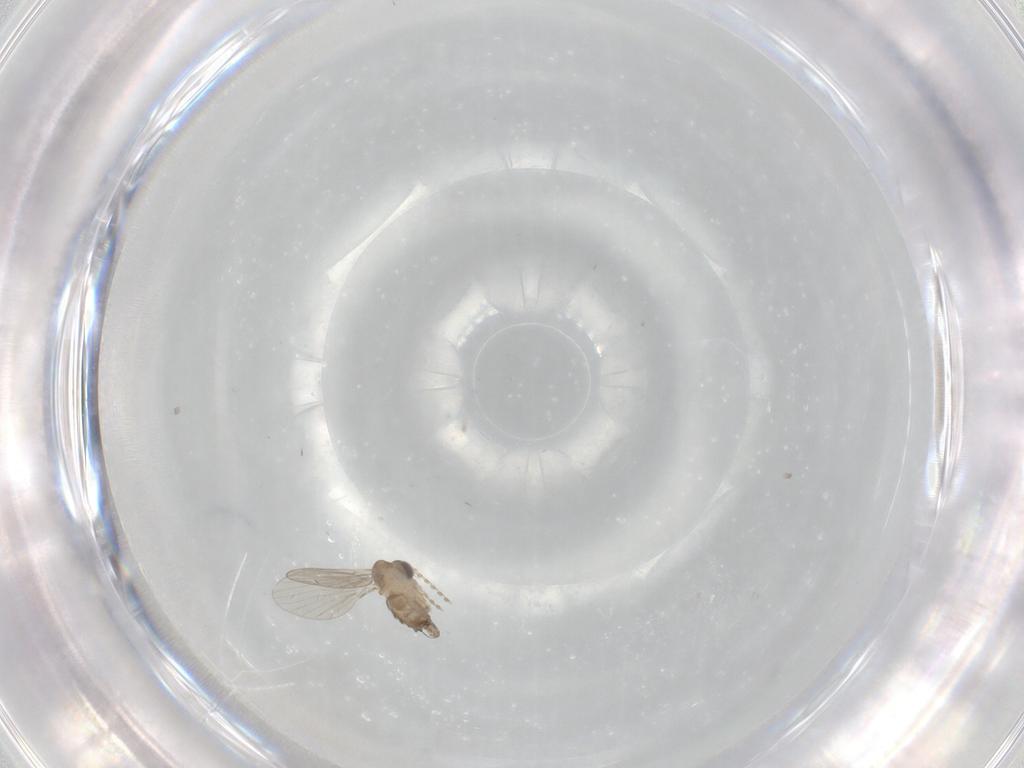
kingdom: Animalia
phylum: Arthropoda
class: Insecta
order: Diptera
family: Psychodidae
